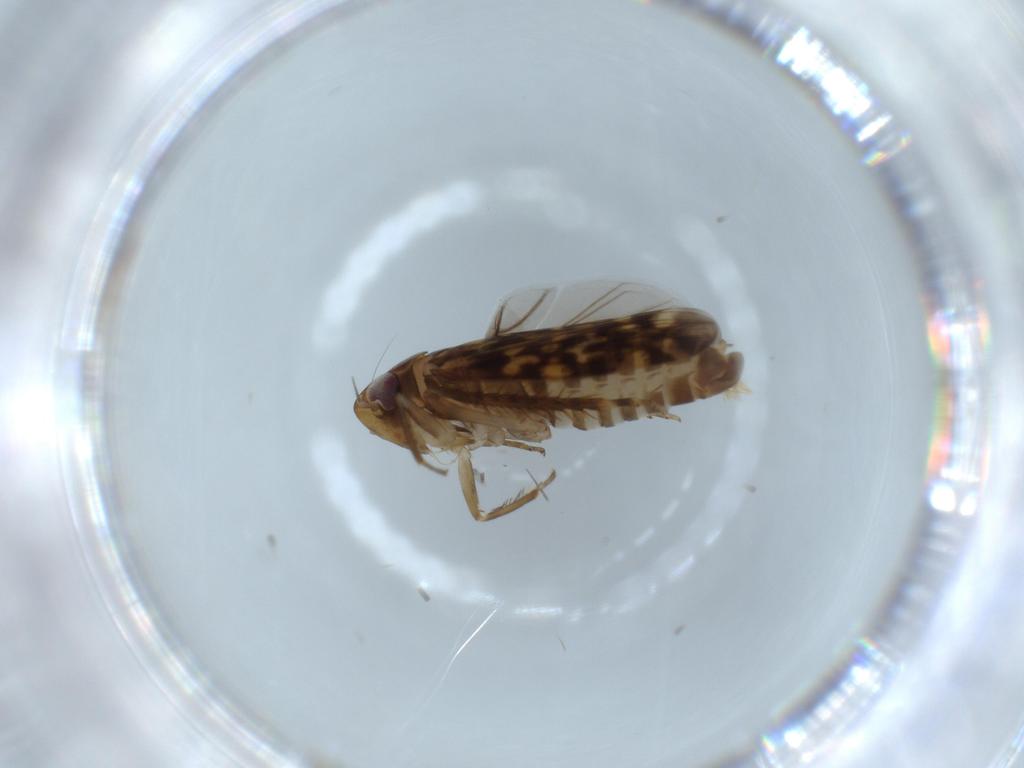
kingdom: Animalia
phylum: Arthropoda
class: Insecta
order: Hemiptera
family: Cicadellidae
